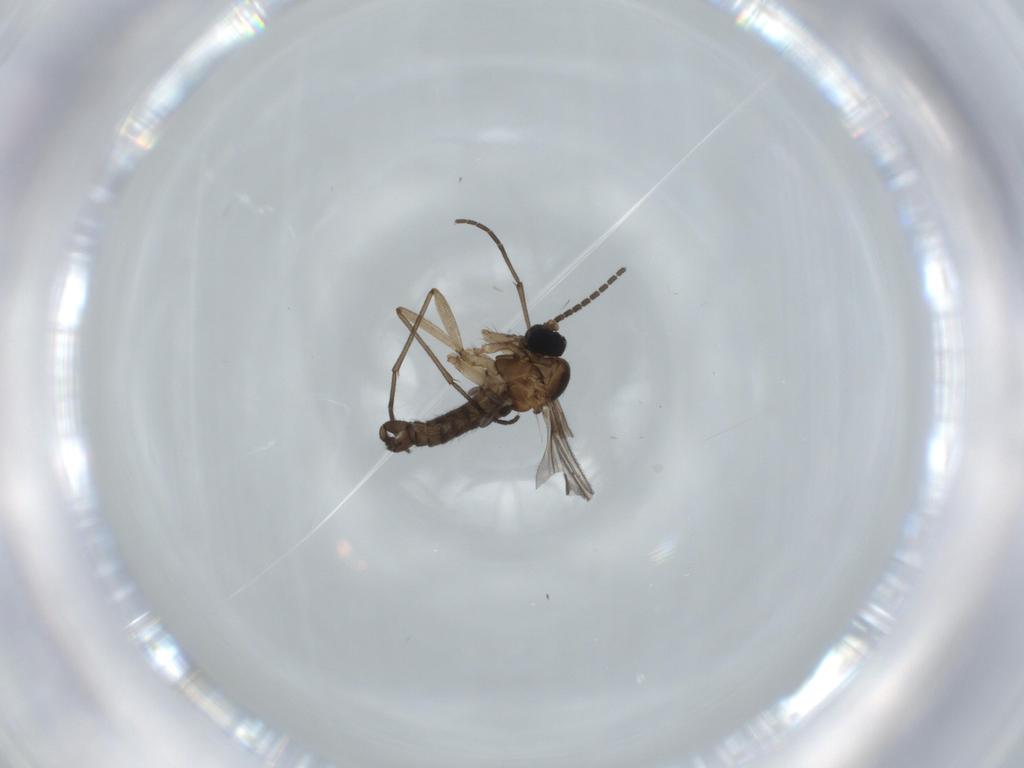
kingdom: Animalia
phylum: Arthropoda
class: Insecta
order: Diptera
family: Sciaridae
